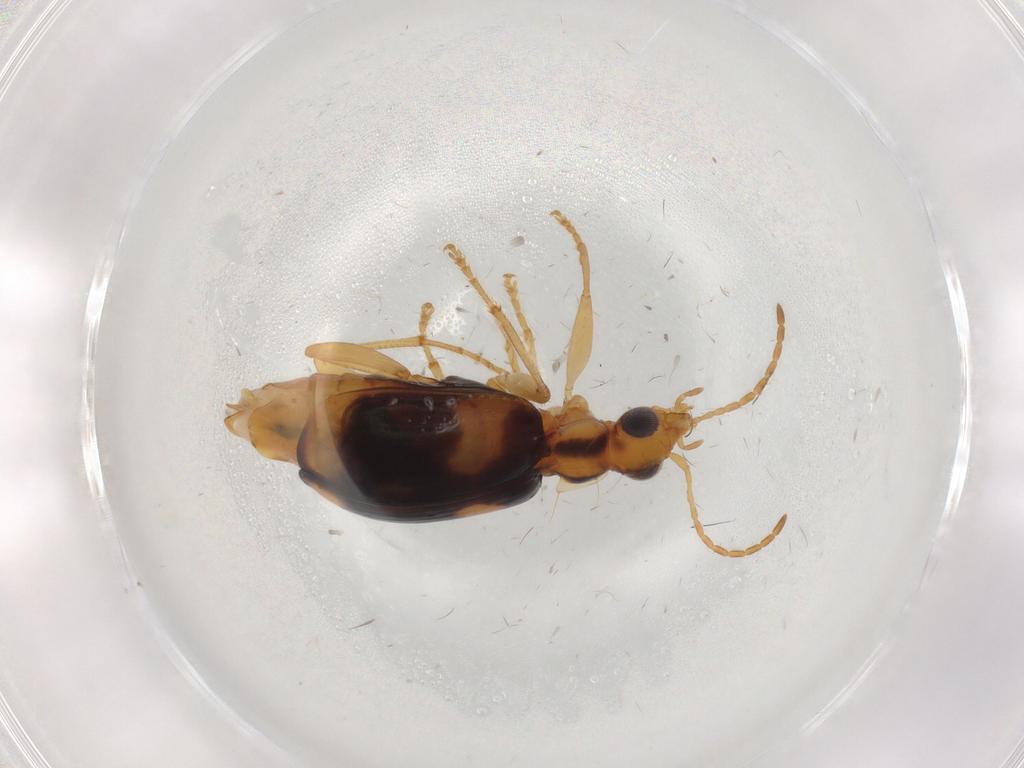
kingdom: Animalia
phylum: Arthropoda
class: Insecta
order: Coleoptera
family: Carabidae
